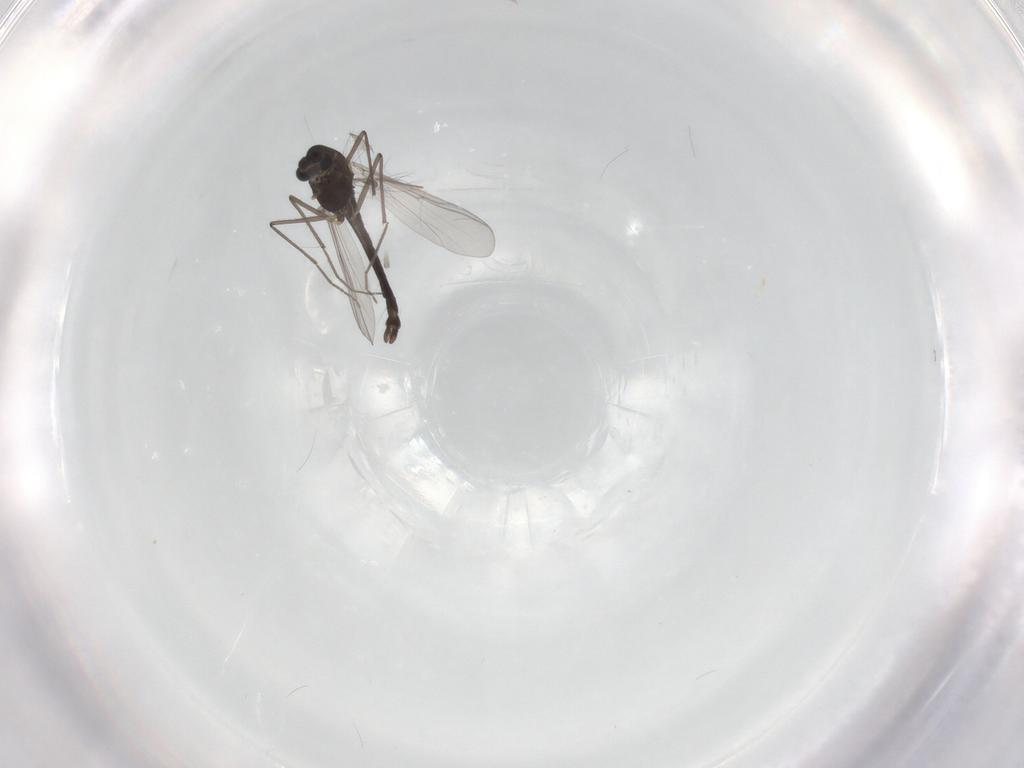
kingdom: Animalia
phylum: Arthropoda
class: Insecta
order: Diptera
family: Chironomidae
